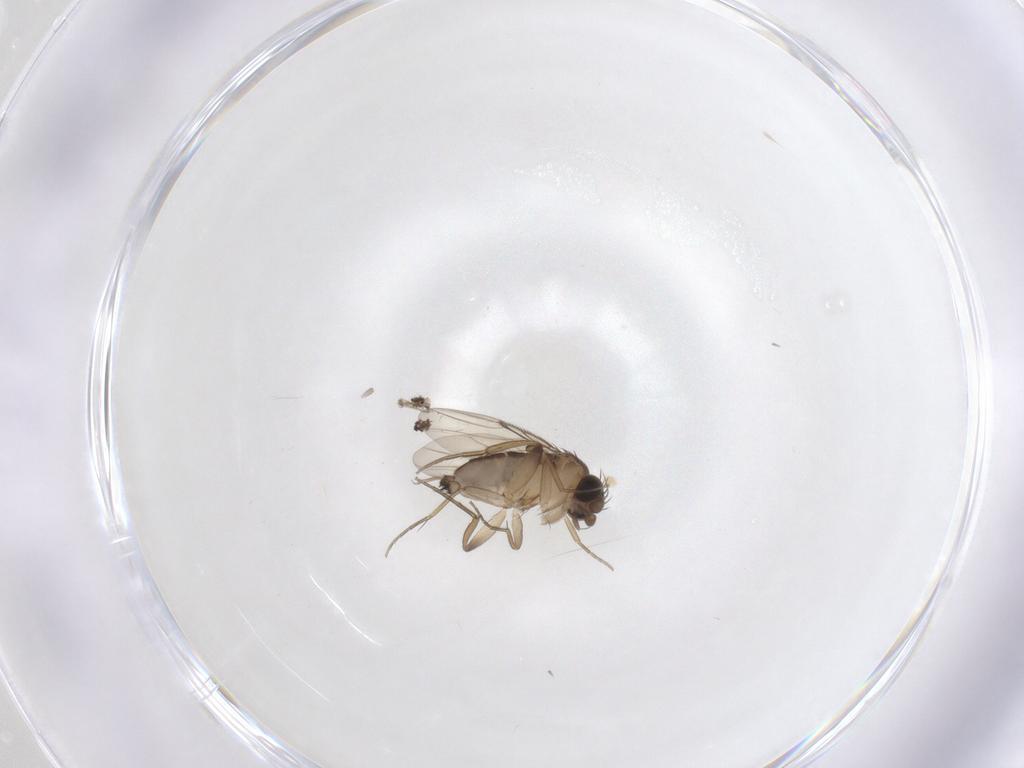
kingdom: Animalia
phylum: Arthropoda
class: Insecta
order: Diptera
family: Phoridae
